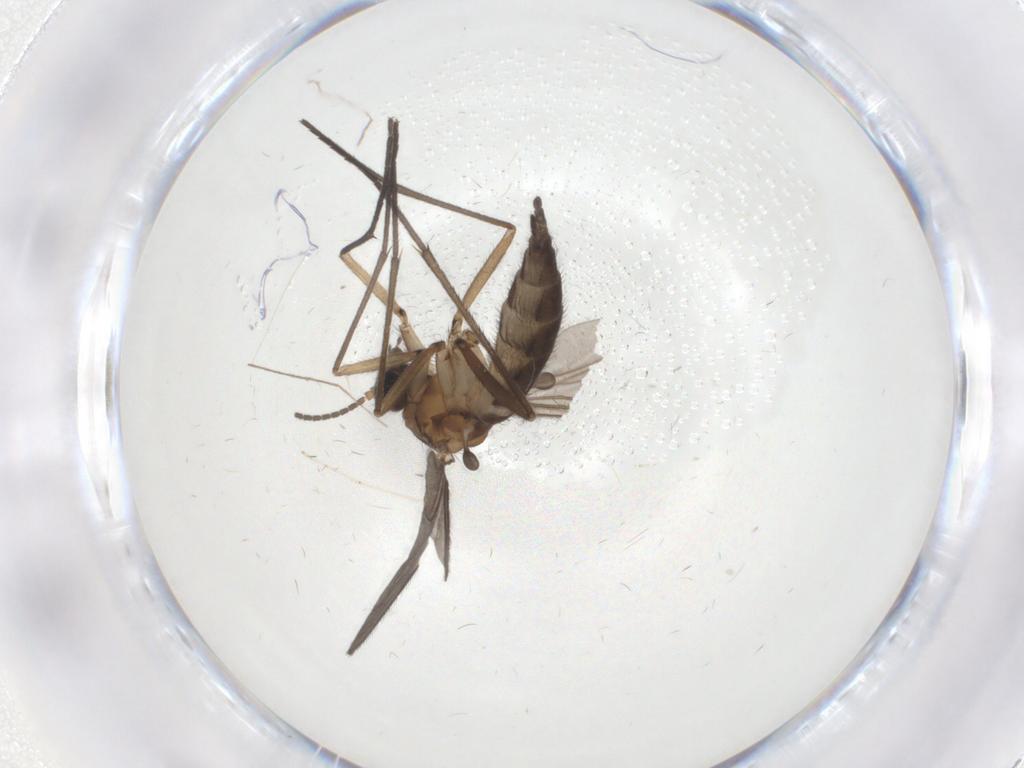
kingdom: Animalia
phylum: Arthropoda
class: Insecta
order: Diptera
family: Sciaridae
